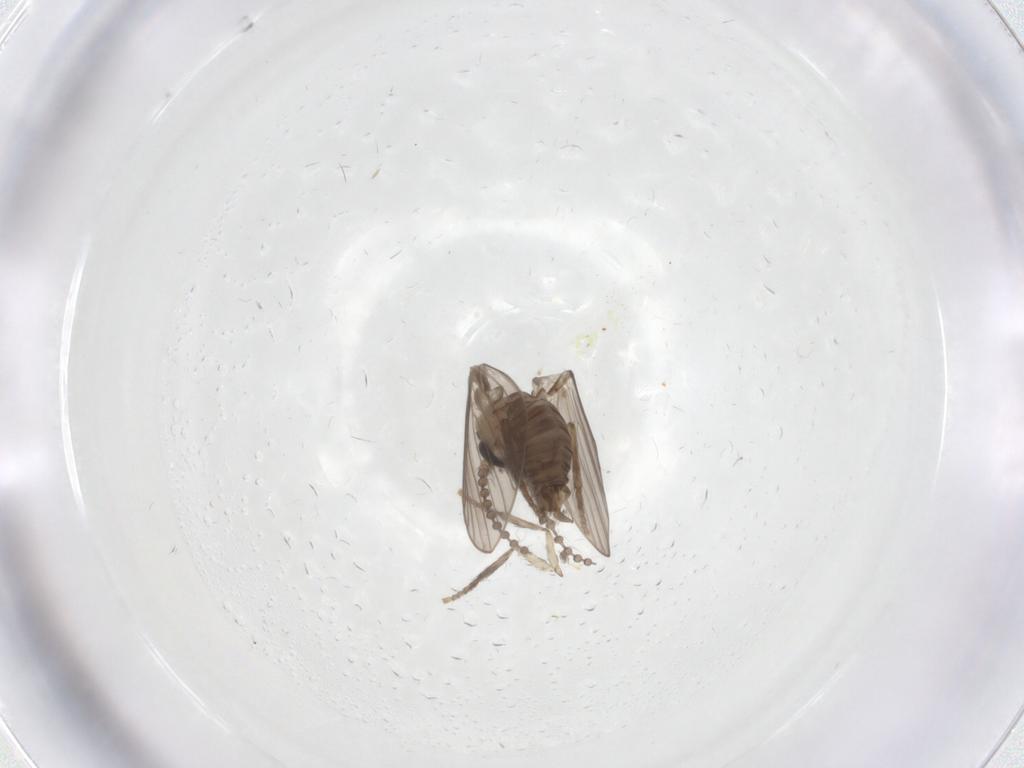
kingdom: Animalia
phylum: Arthropoda
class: Insecta
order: Diptera
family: Psychodidae
